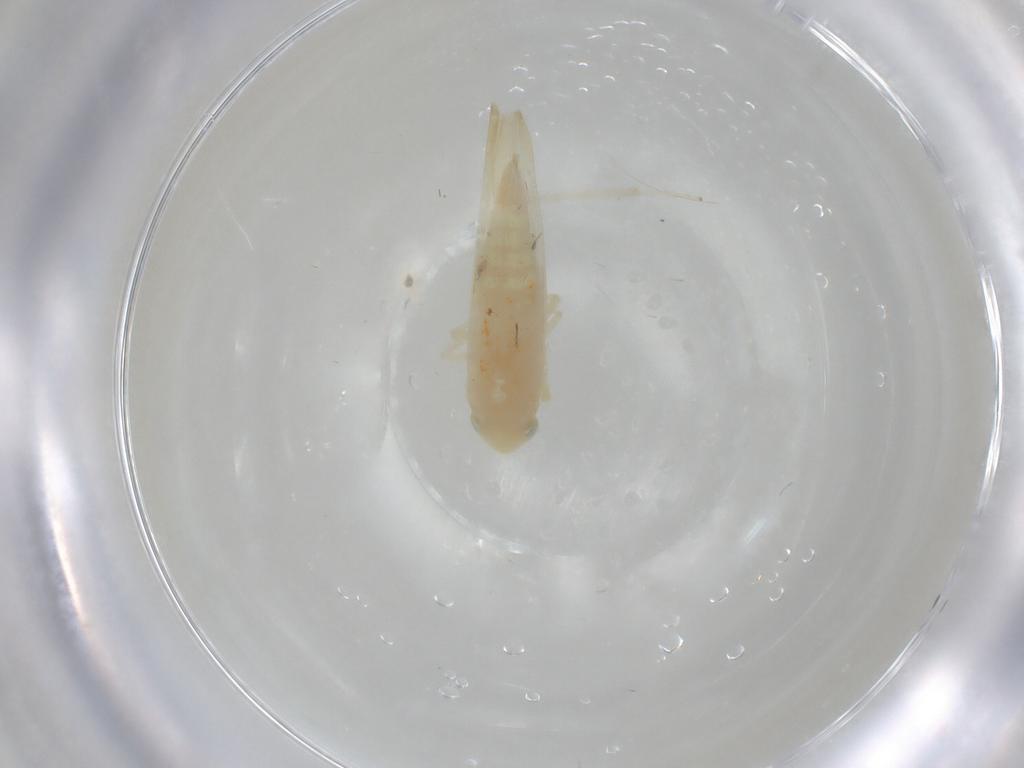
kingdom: Animalia
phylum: Arthropoda
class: Insecta
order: Hemiptera
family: Cicadellidae
